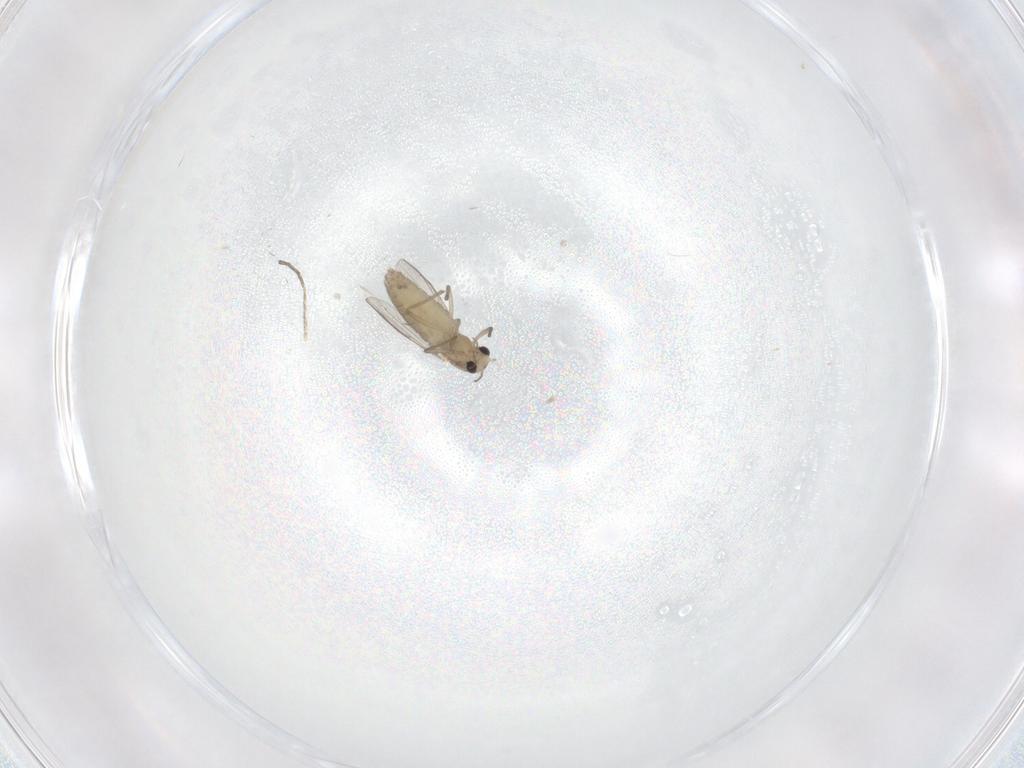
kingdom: Animalia
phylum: Arthropoda
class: Insecta
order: Diptera
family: Chironomidae
